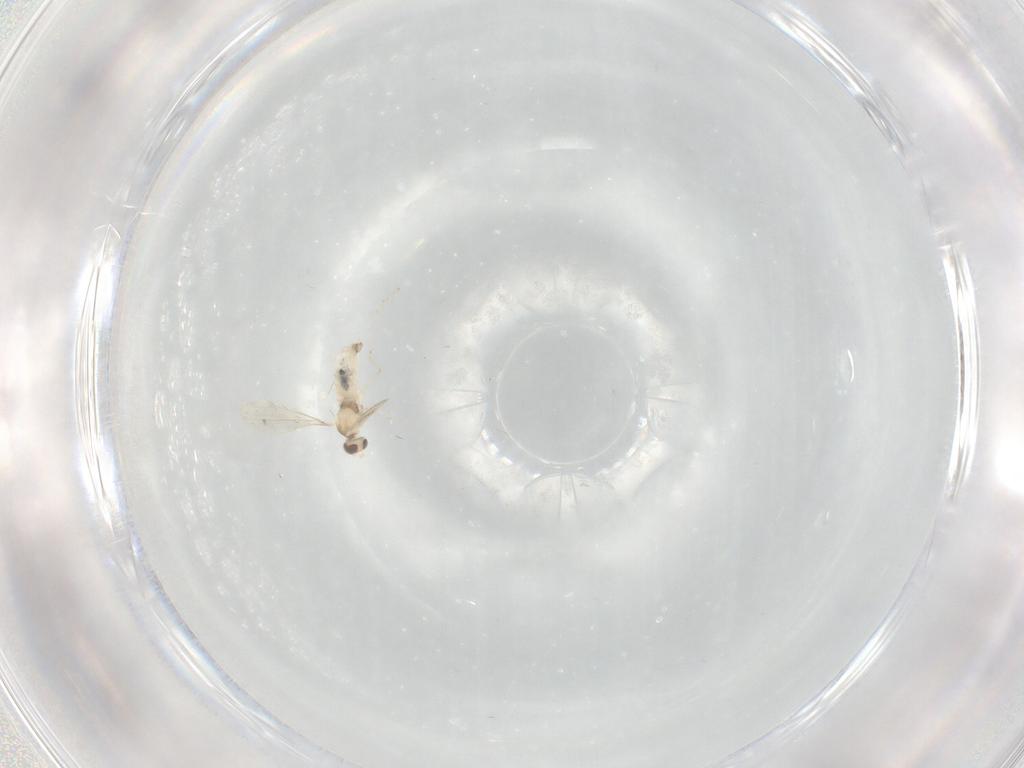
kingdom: Animalia
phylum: Arthropoda
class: Insecta
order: Diptera
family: Cecidomyiidae
